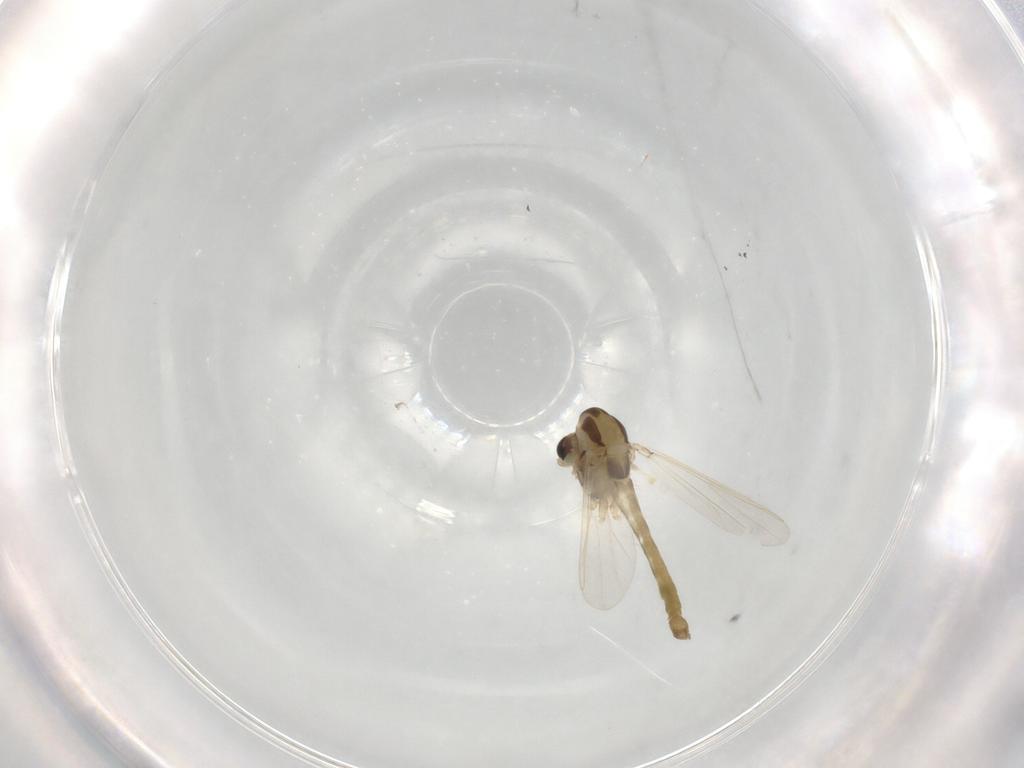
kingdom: Animalia
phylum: Arthropoda
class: Insecta
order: Diptera
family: Chironomidae
